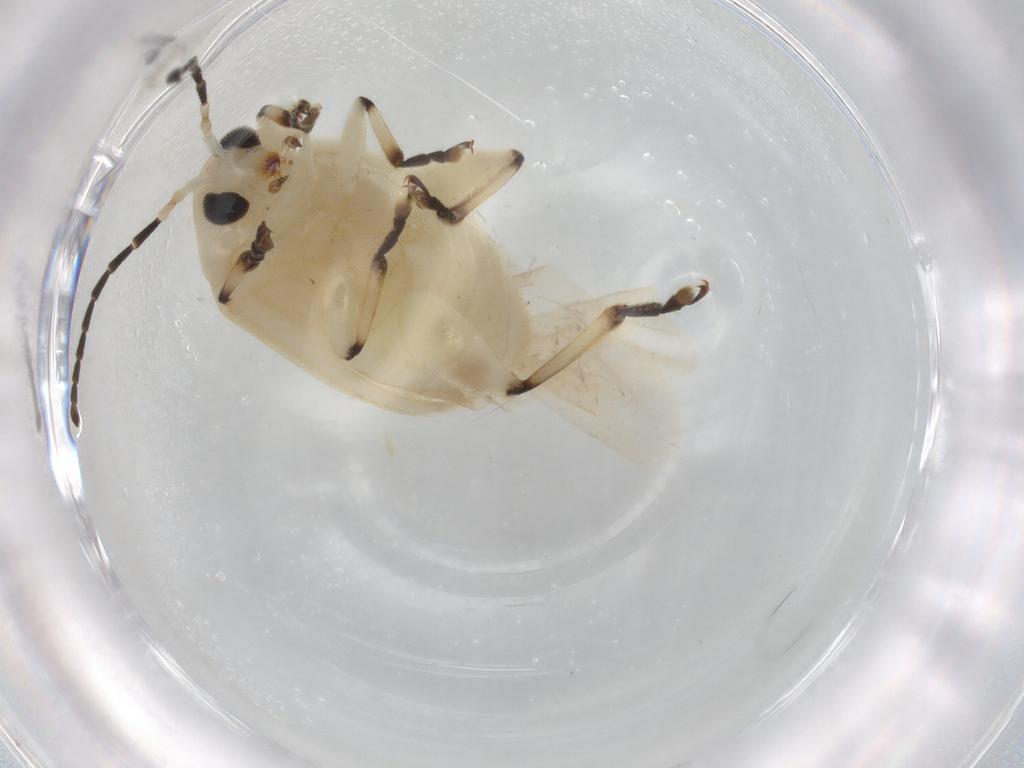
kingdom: Animalia
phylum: Arthropoda
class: Insecta
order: Coleoptera
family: Chrysomelidae
